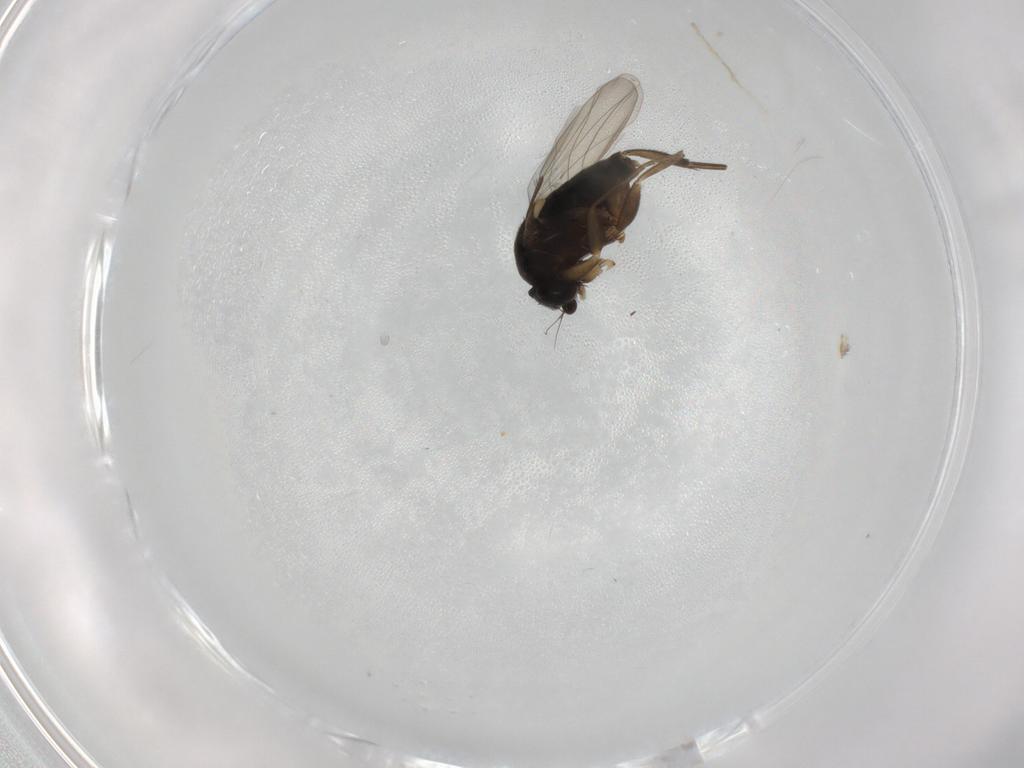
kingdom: Animalia
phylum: Arthropoda
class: Insecta
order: Diptera
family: Phoridae
